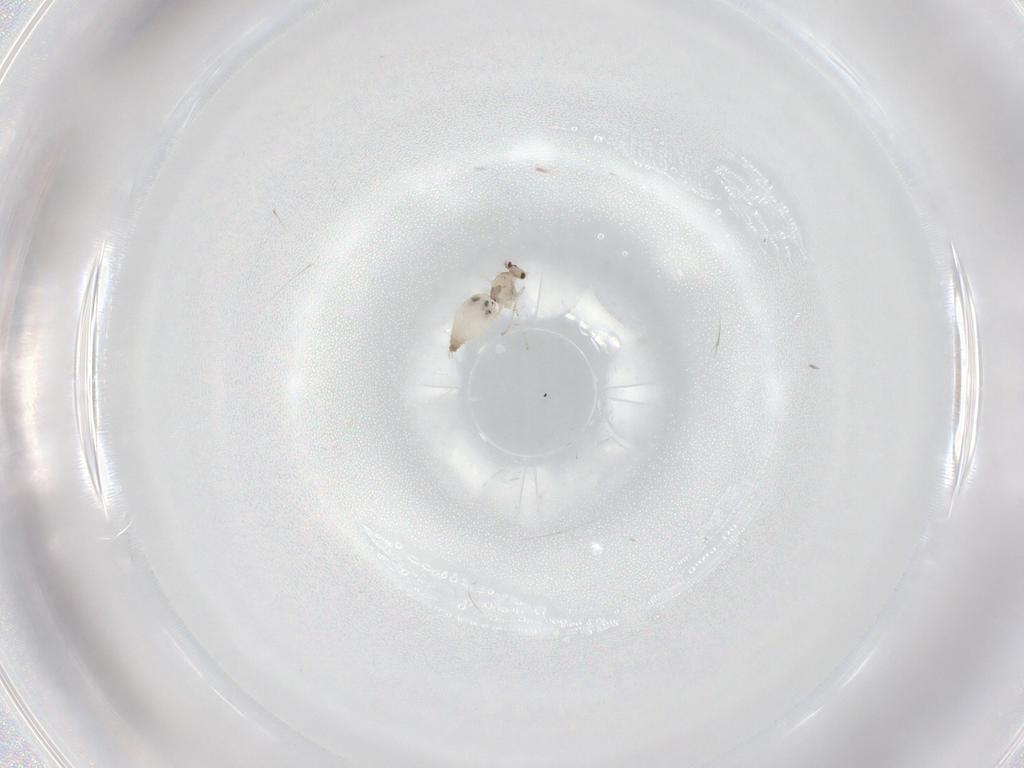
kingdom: Animalia
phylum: Arthropoda
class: Insecta
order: Diptera
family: Cecidomyiidae
